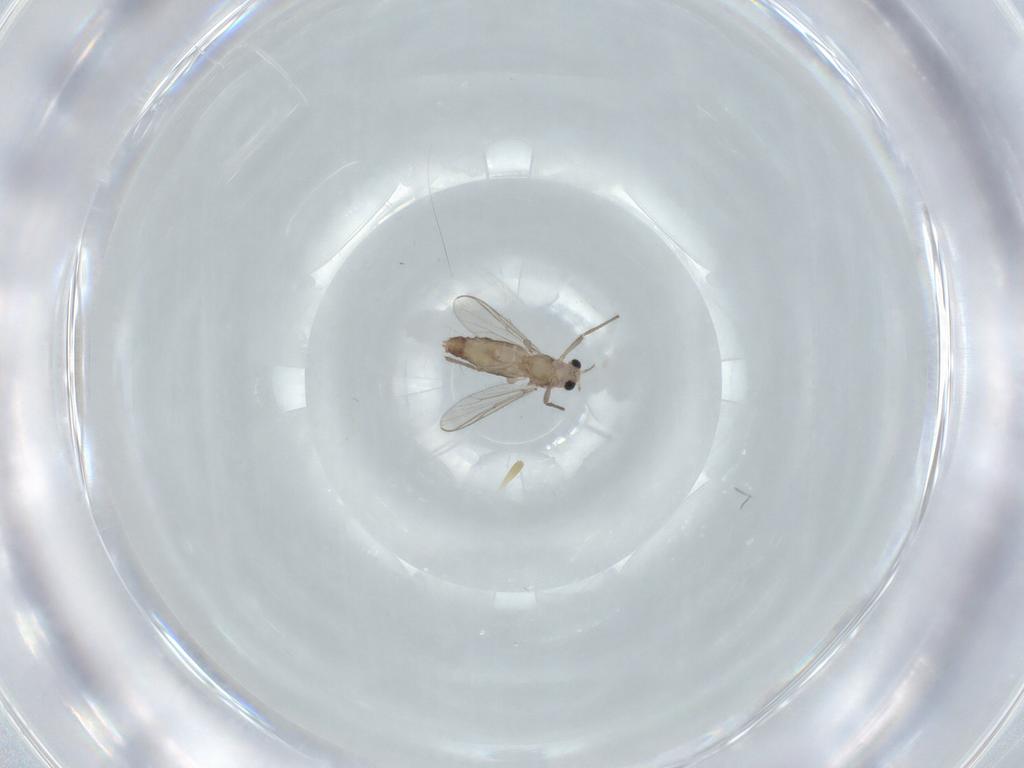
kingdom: Animalia
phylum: Arthropoda
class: Insecta
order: Diptera
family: Chironomidae
